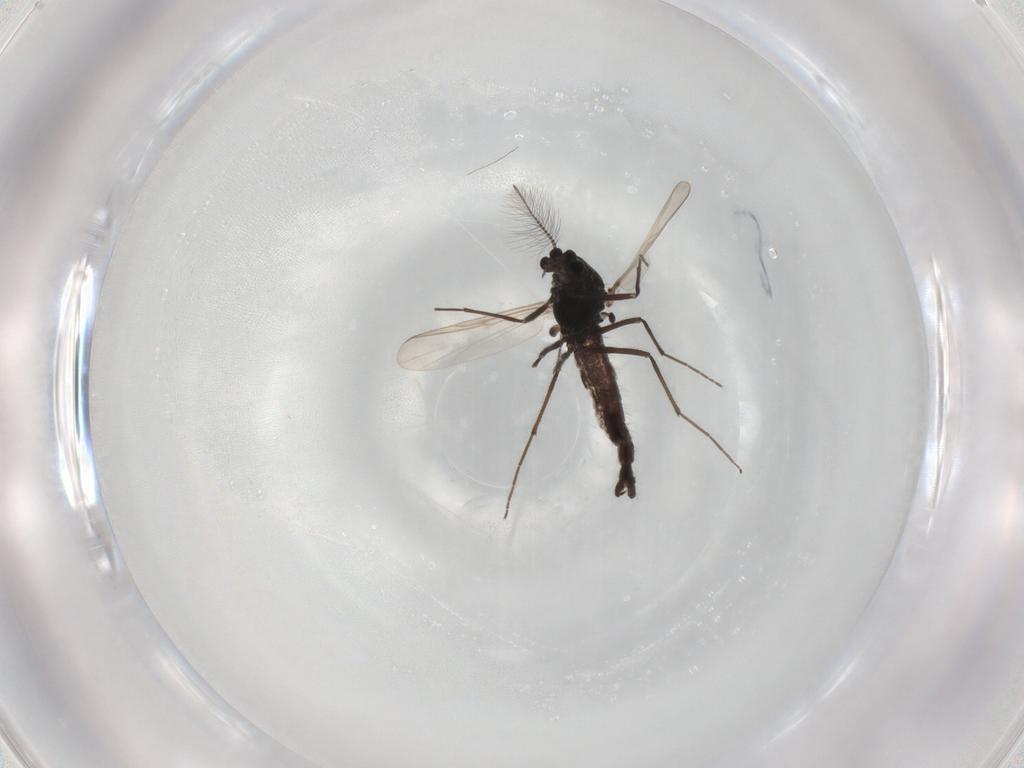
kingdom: Animalia
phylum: Arthropoda
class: Insecta
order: Diptera
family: Chironomidae
